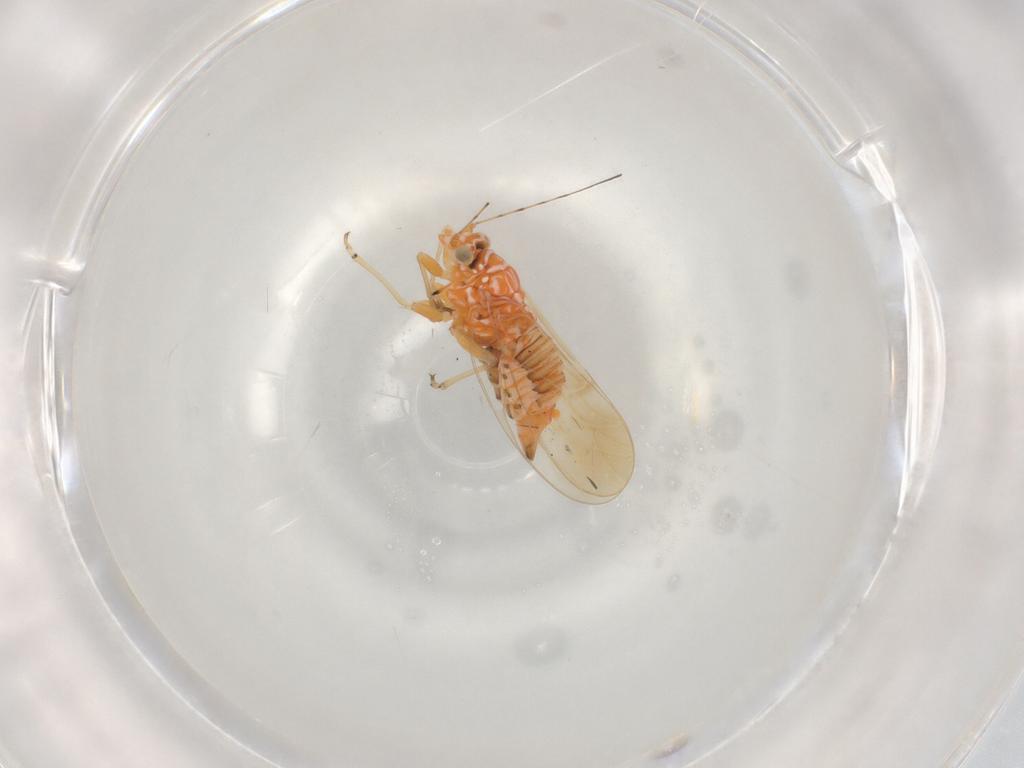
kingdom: Animalia
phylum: Arthropoda
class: Insecta
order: Hemiptera
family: Psyllidae
